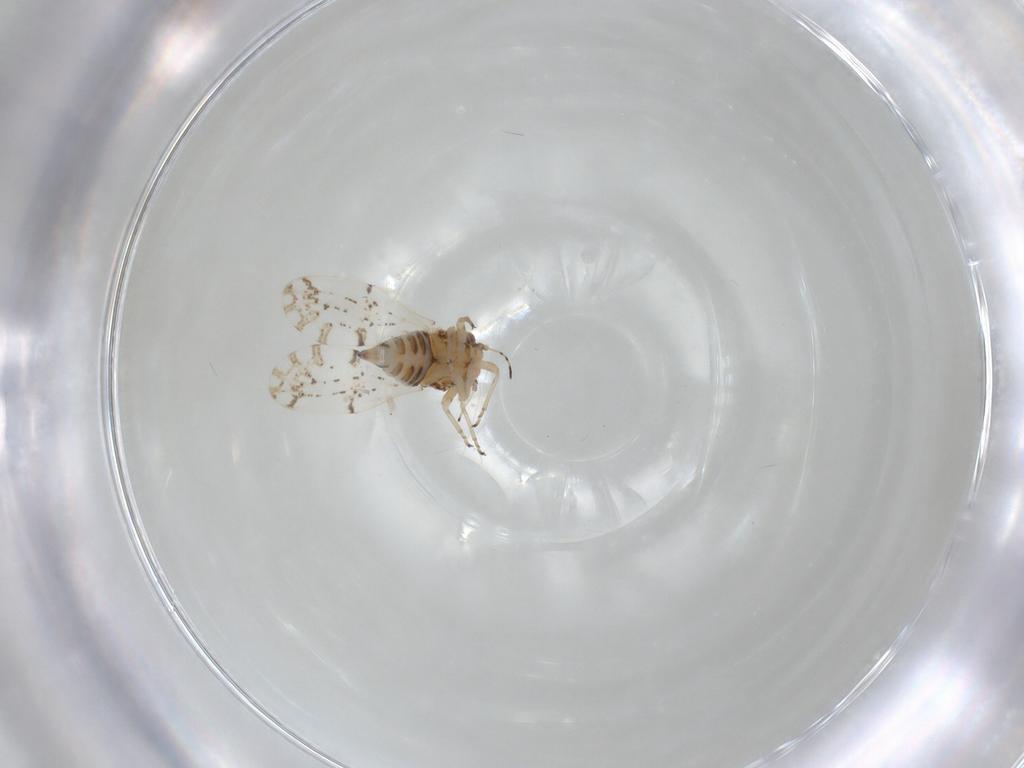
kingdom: Animalia
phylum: Arthropoda
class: Insecta
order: Hemiptera
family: Psylloidea_incertae_sedis
